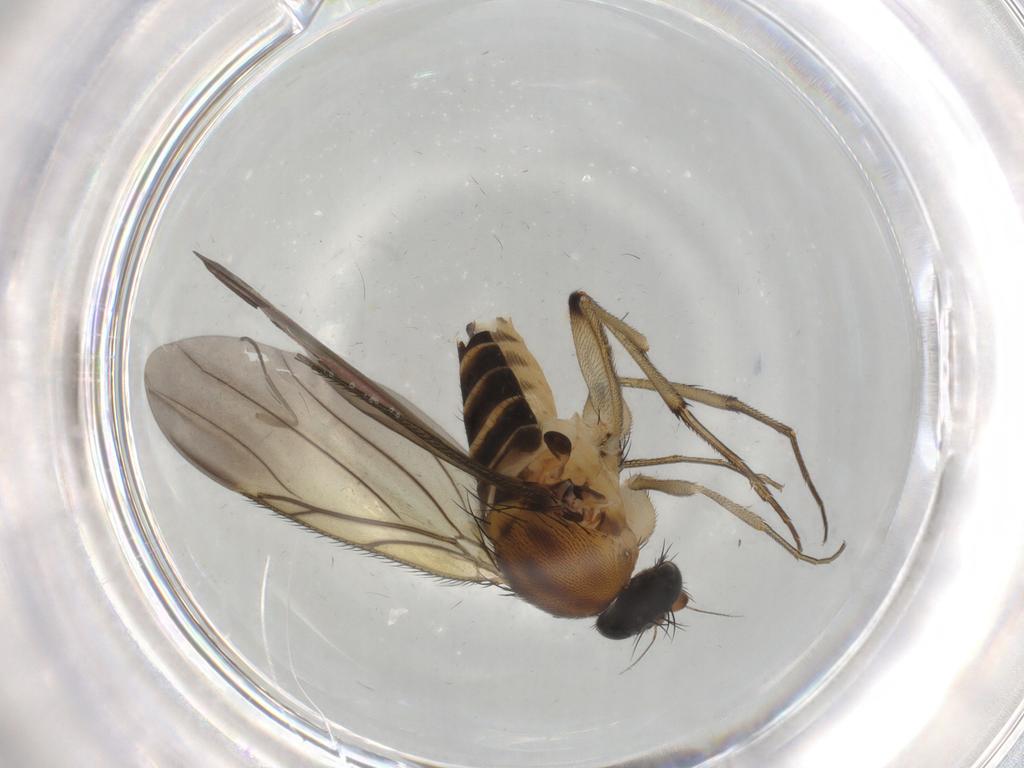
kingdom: Animalia
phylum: Arthropoda
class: Insecta
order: Diptera
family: Phoridae
